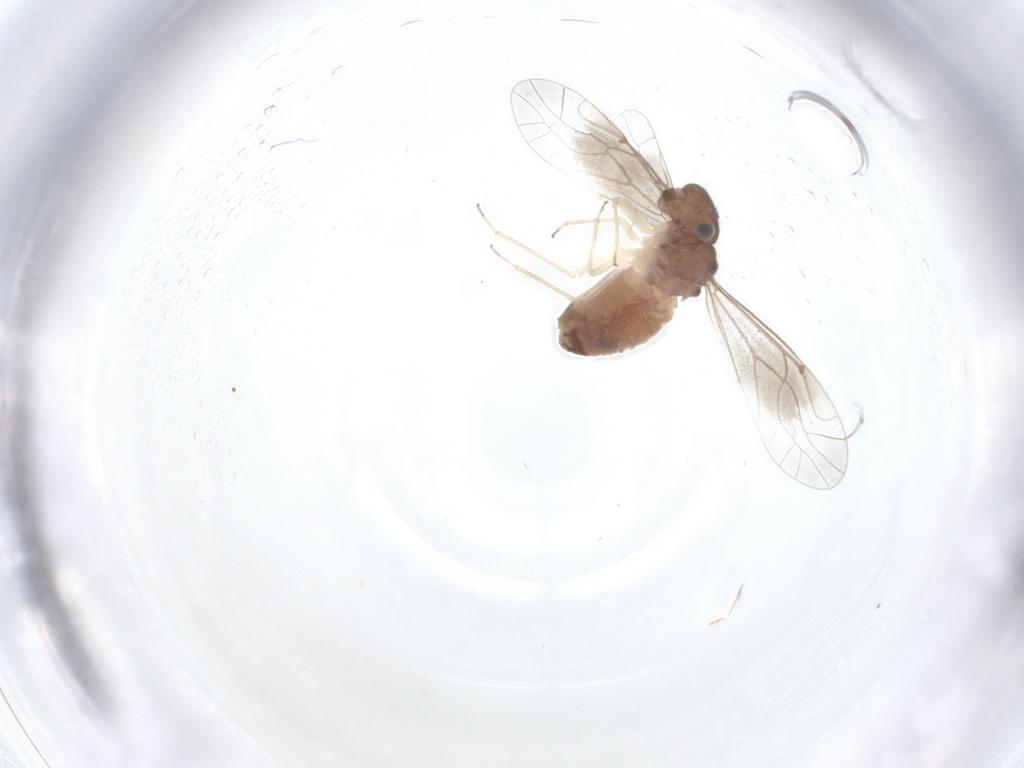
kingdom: Animalia
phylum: Arthropoda
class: Insecta
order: Psocodea
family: Caeciliusidae
